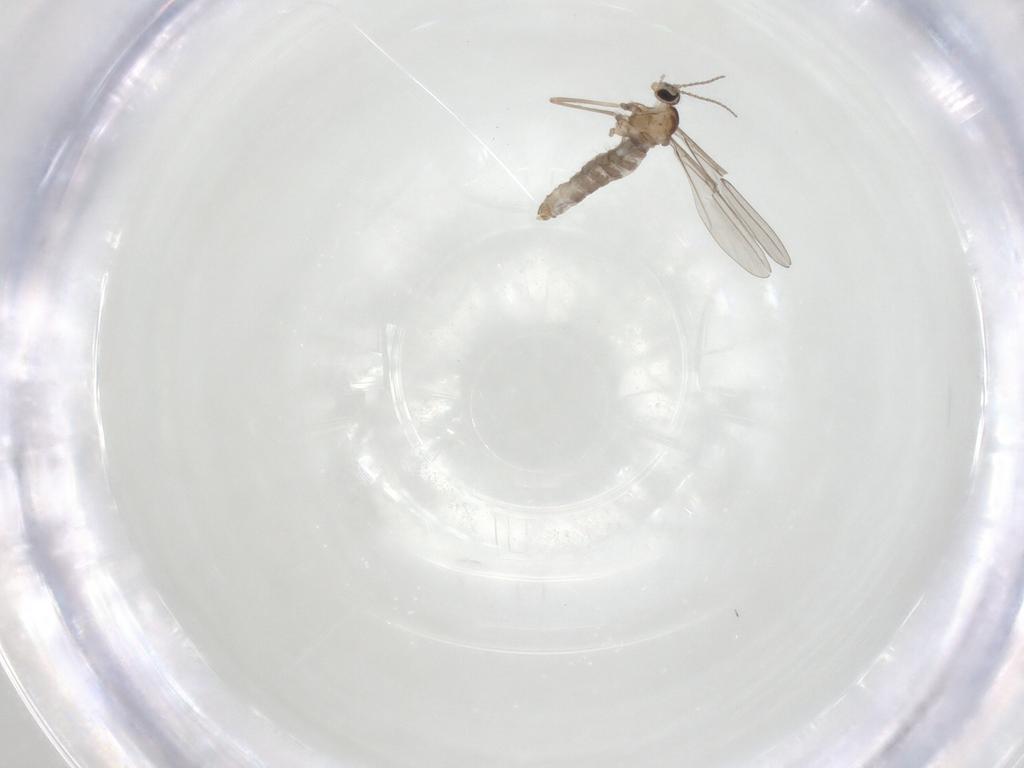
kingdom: Animalia
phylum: Arthropoda
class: Insecta
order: Diptera
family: Cecidomyiidae
